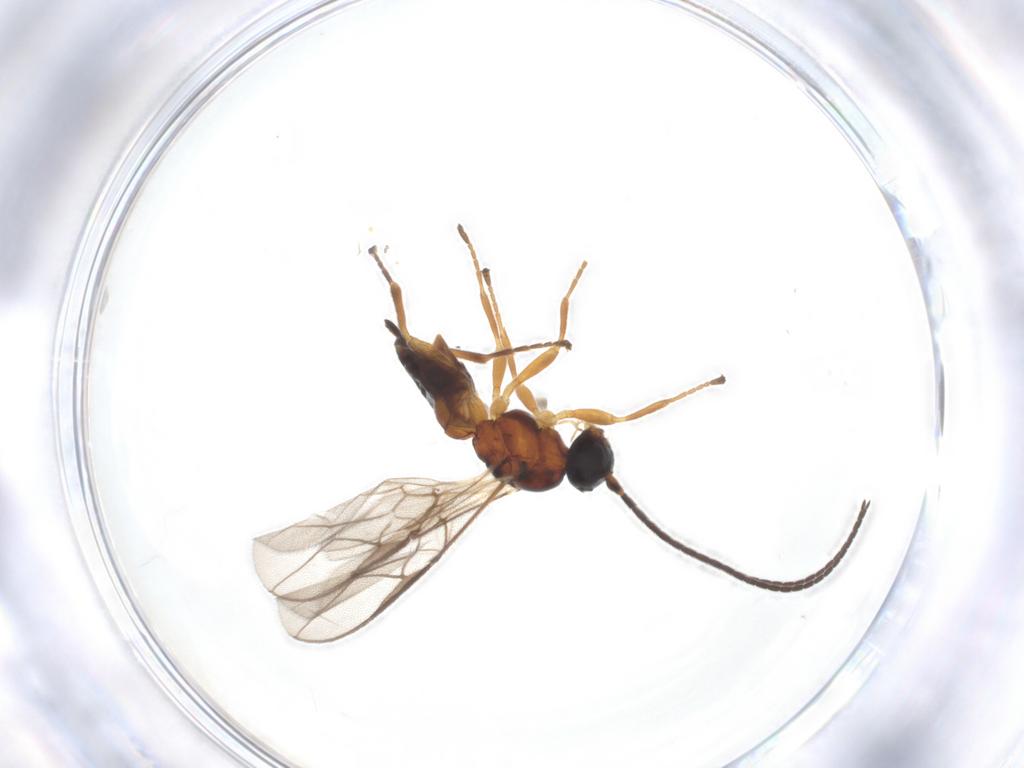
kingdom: Animalia
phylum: Arthropoda
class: Insecta
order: Hymenoptera
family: Braconidae
